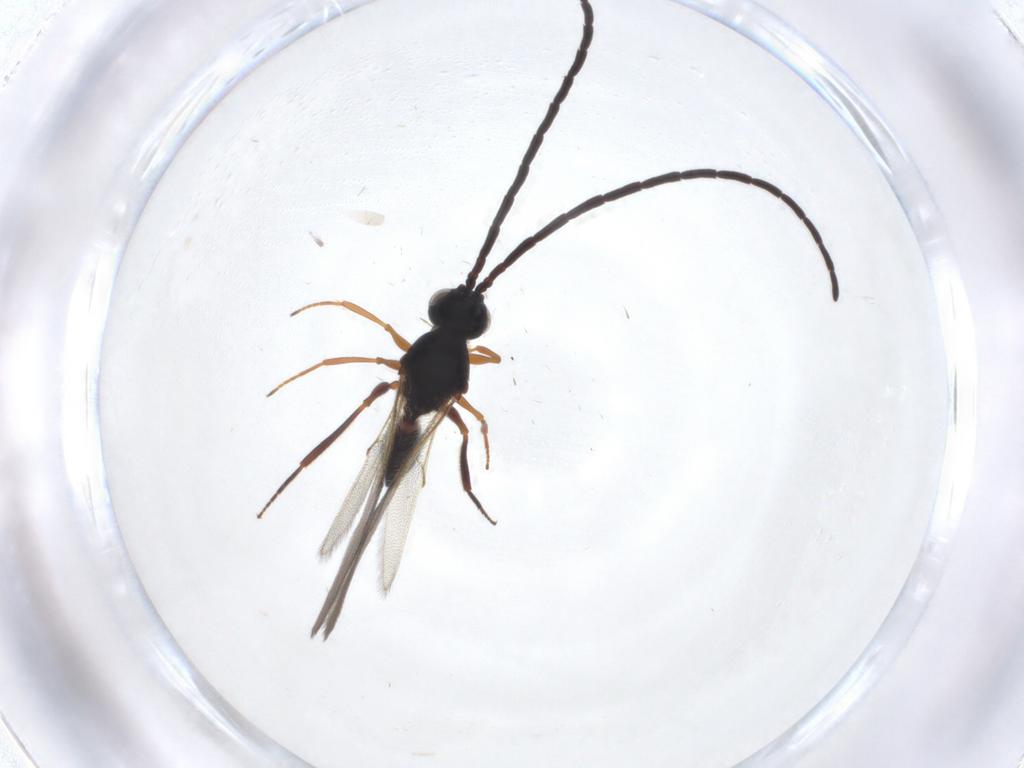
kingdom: Animalia
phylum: Arthropoda
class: Insecta
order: Hymenoptera
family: Figitidae
